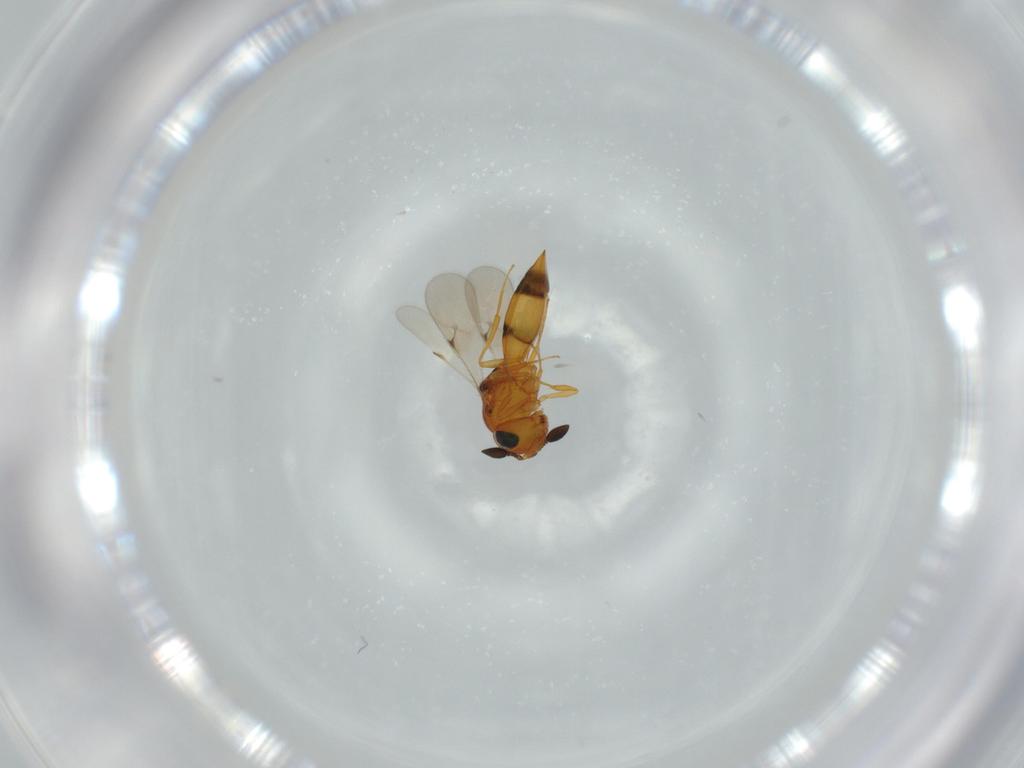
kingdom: Animalia
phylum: Arthropoda
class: Insecta
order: Hymenoptera
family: Scelionidae
